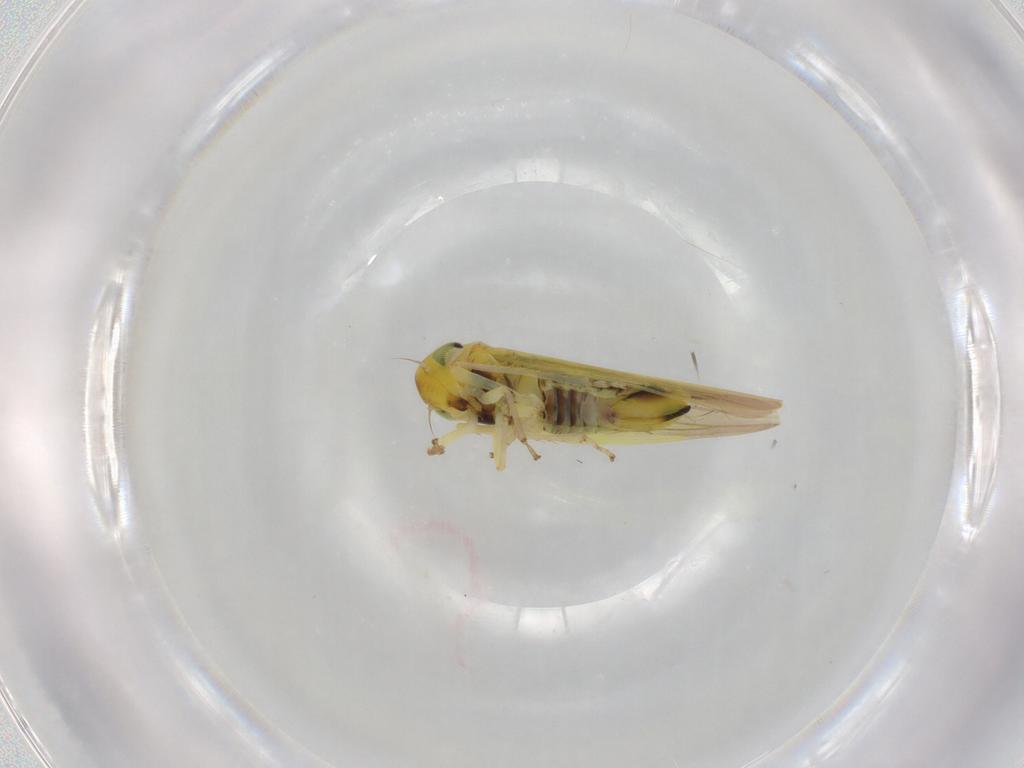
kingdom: Animalia
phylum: Arthropoda
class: Insecta
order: Hemiptera
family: Cicadellidae
